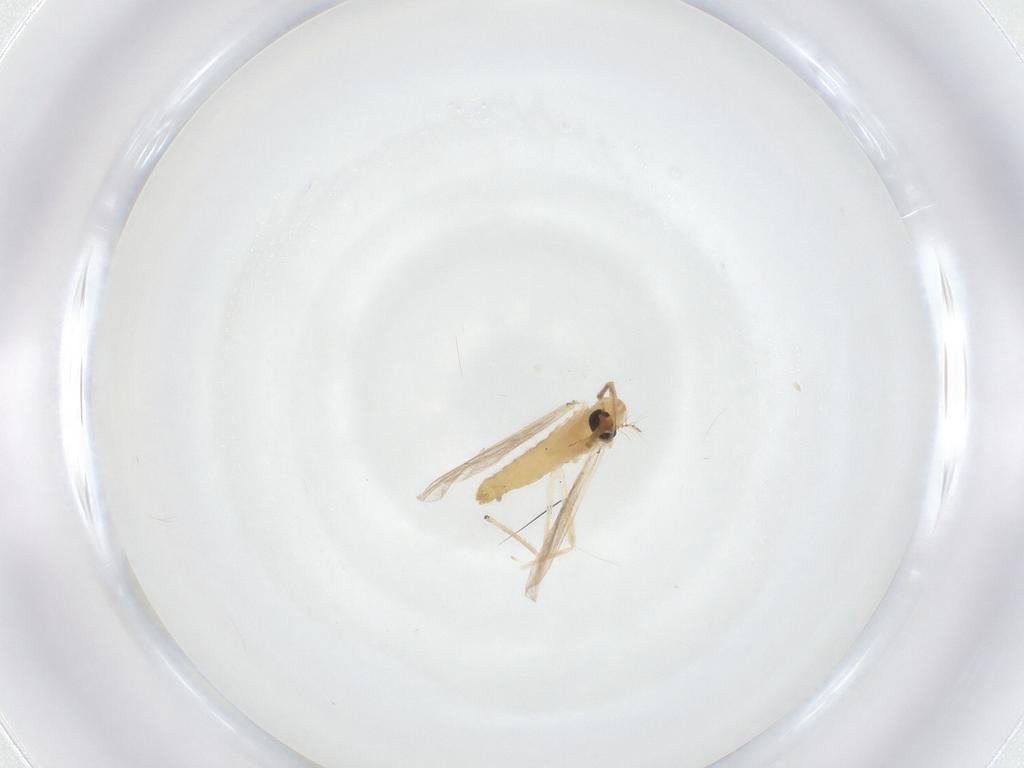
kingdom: Animalia
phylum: Arthropoda
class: Insecta
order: Diptera
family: Chironomidae
